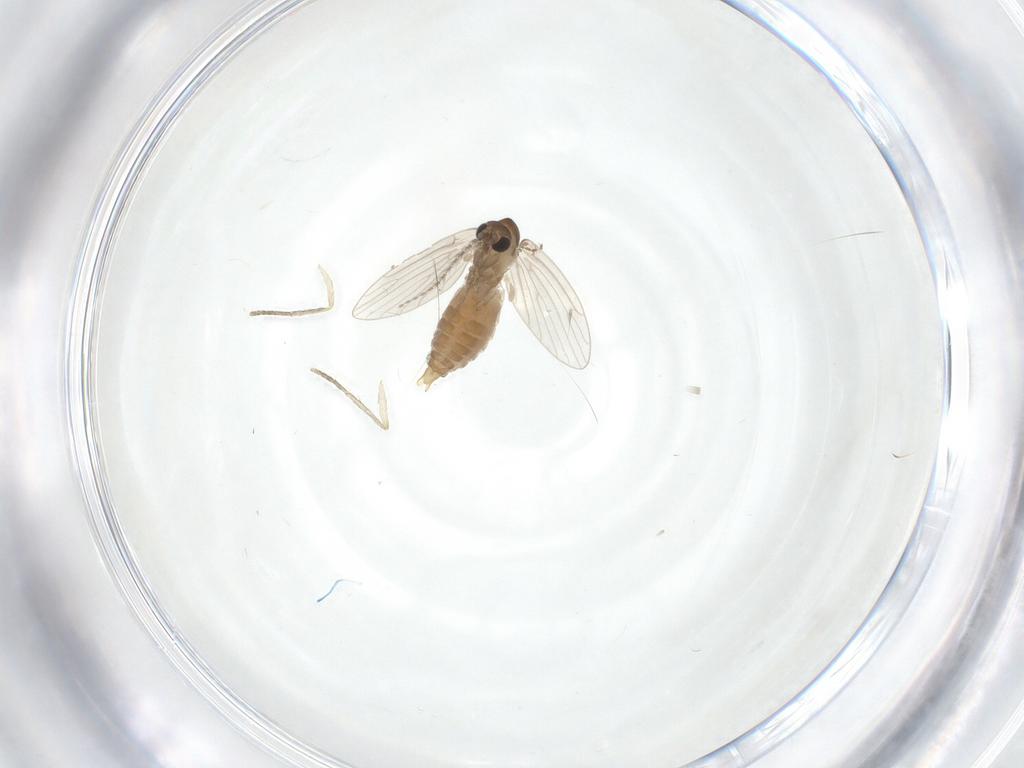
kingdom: Animalia
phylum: Arthropoda
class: Insecta
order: Diptera
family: Cecidomyiidae
